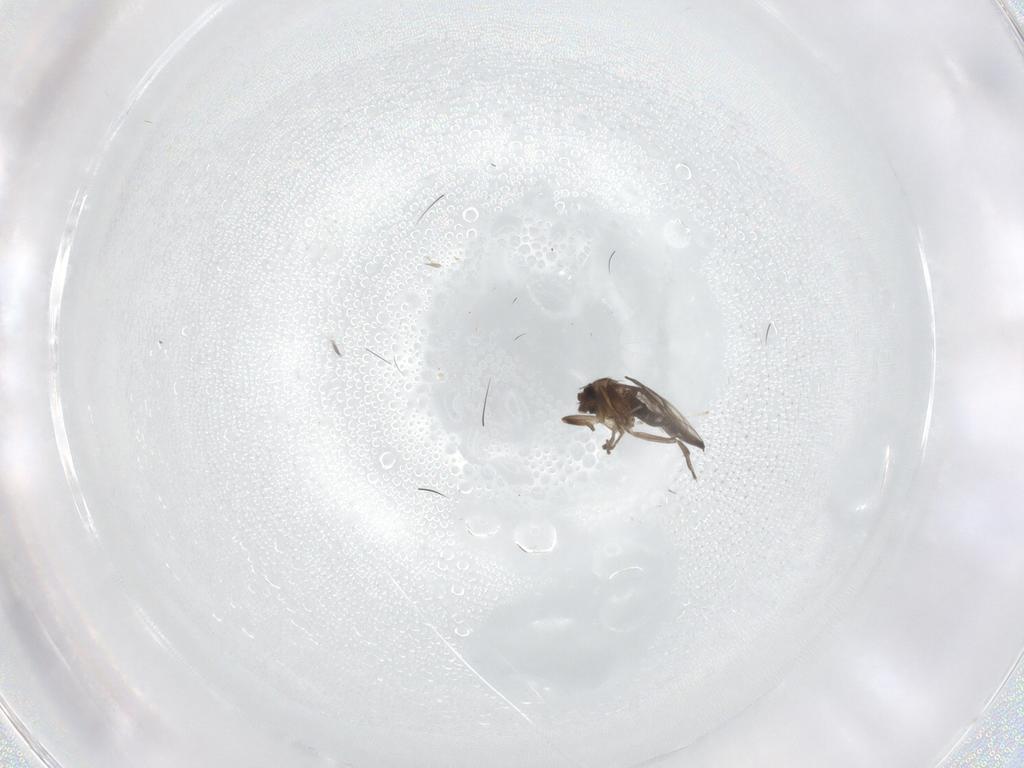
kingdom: Animalia
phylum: Arthropoda
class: Insecta
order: Diptera
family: Cecidomyiidae
